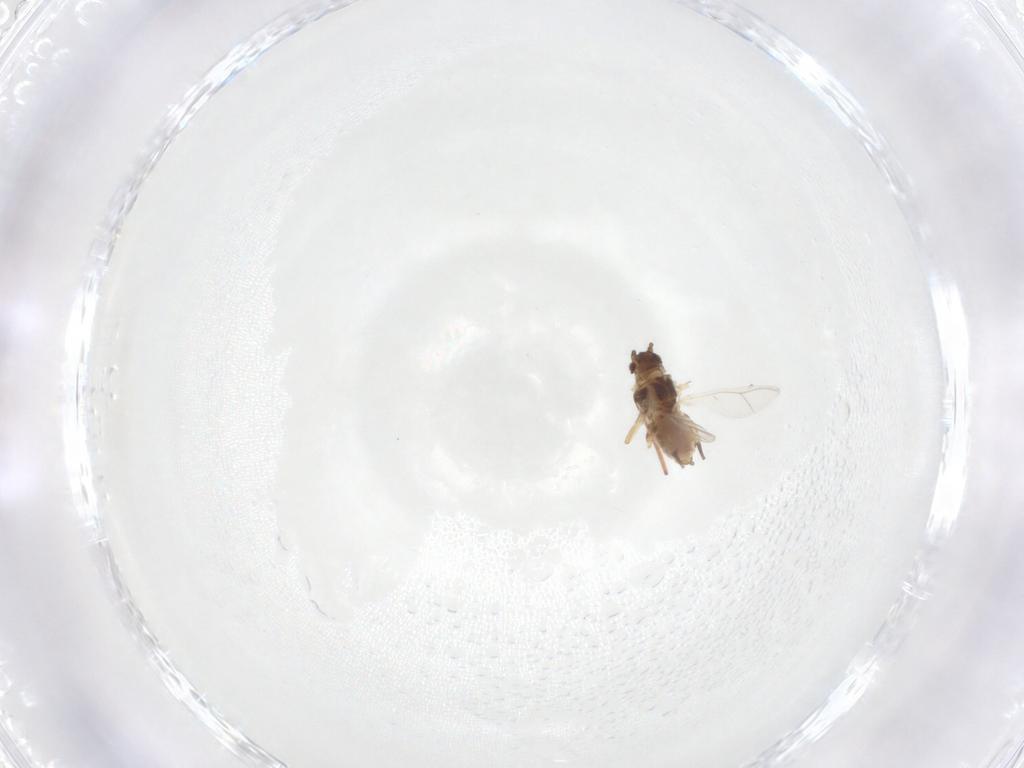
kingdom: Animalia
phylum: Arthropoda
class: Insecta
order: Hemiptera
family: Aphididae
